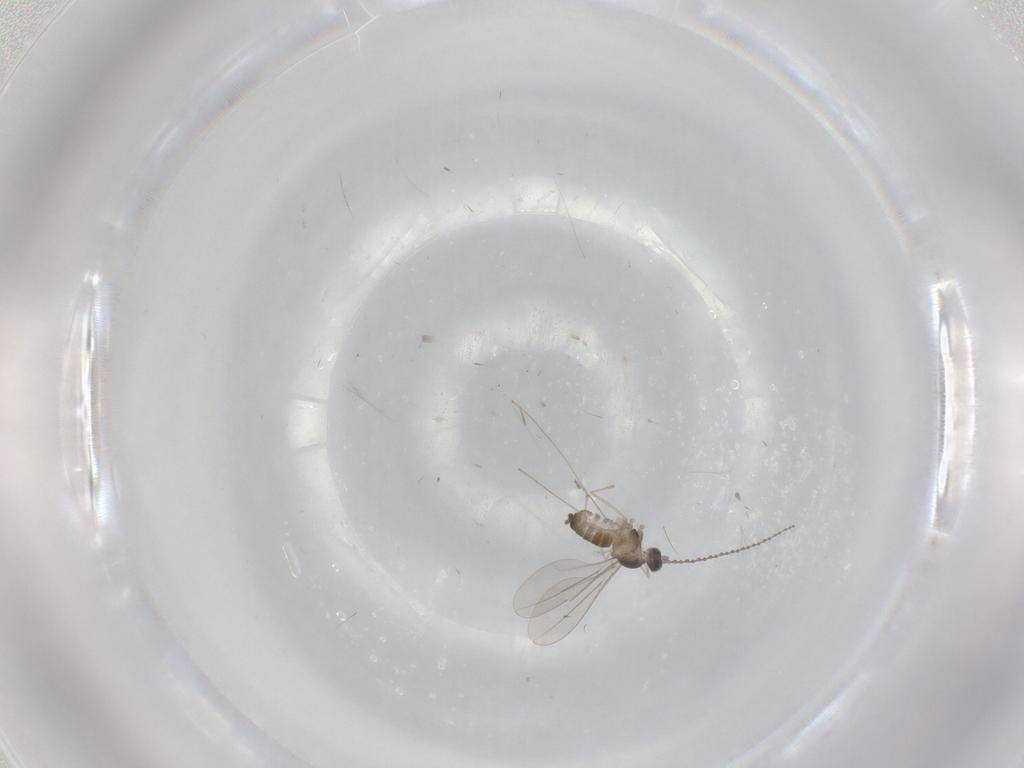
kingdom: Animalia
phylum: Arthropoda
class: Insecta
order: Diptera
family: Cecidomyiidae
